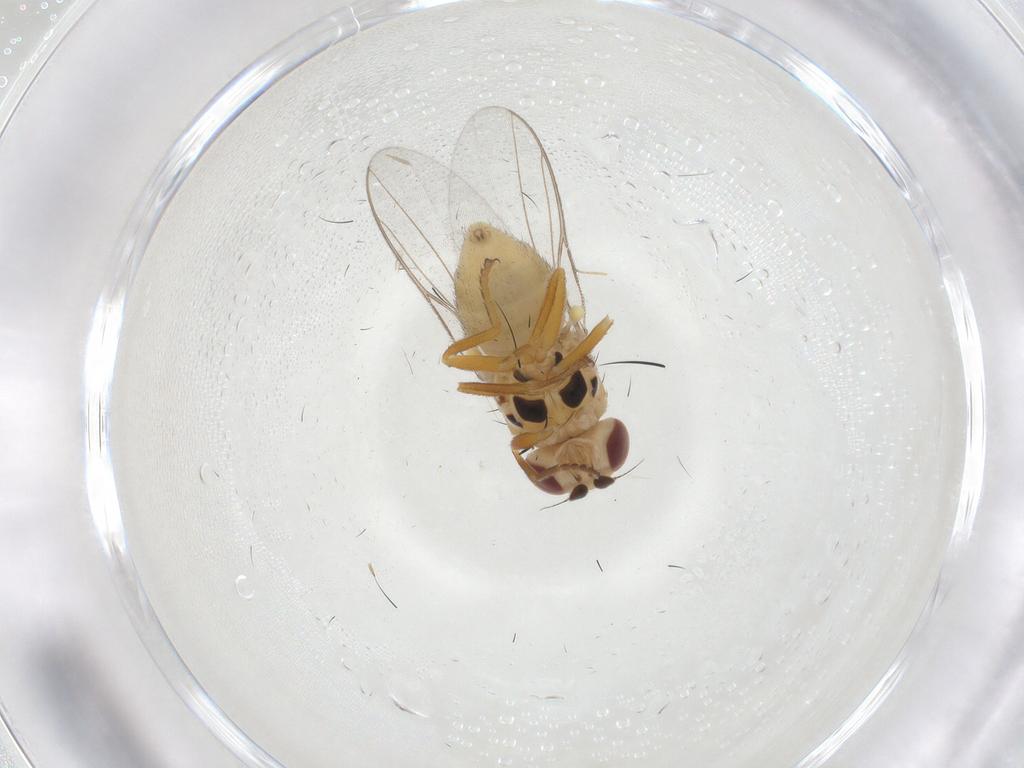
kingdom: Animalia
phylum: Arthropoda
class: Insecta
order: Diptera
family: Chloropidae
